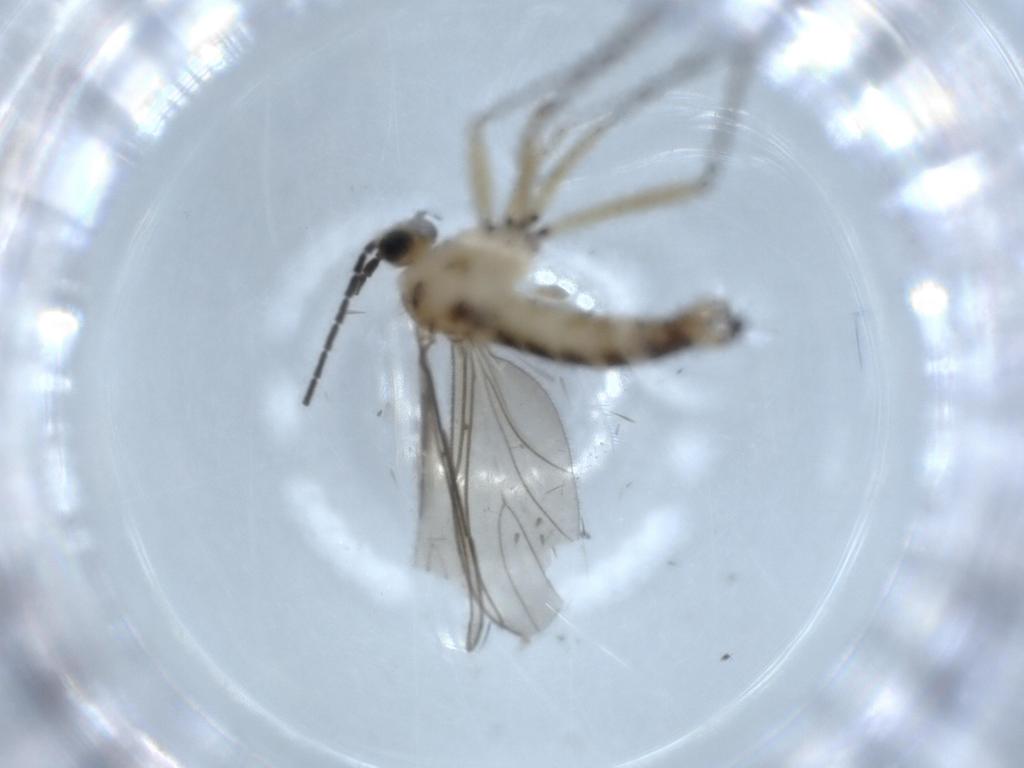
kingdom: Animalia
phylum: Arthropoda
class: Insecta
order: Diptera
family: Sciaridae
